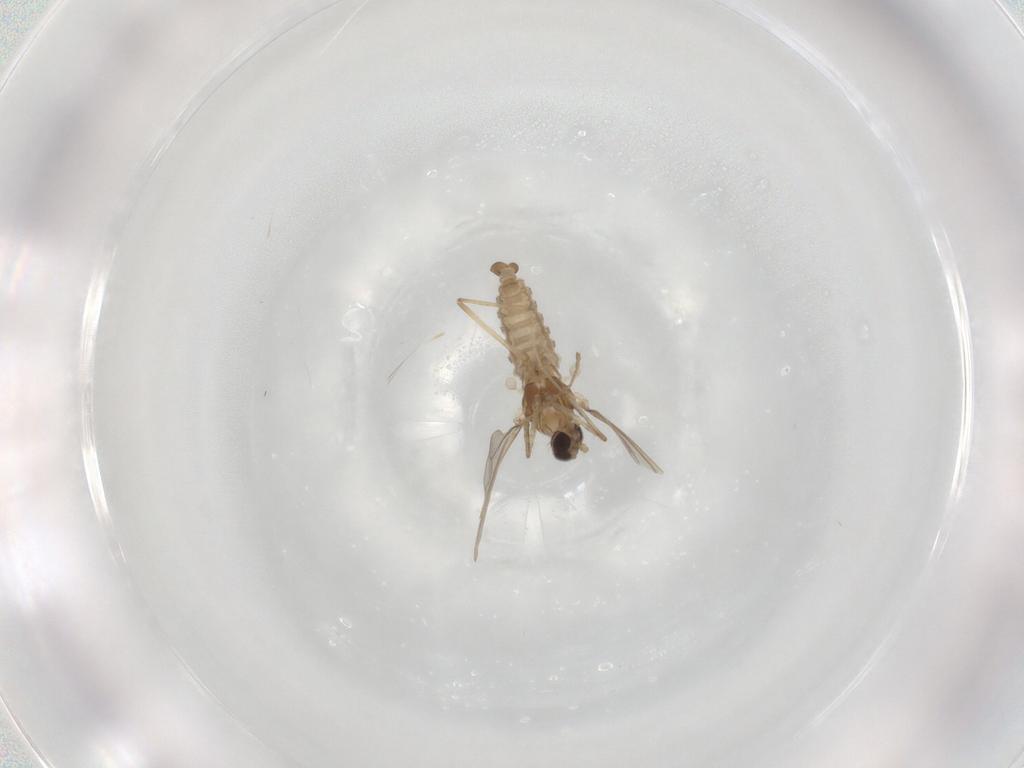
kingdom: Animalia
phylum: Arthropoda
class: Insecta
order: Diptera
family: Cecidomyiidae
